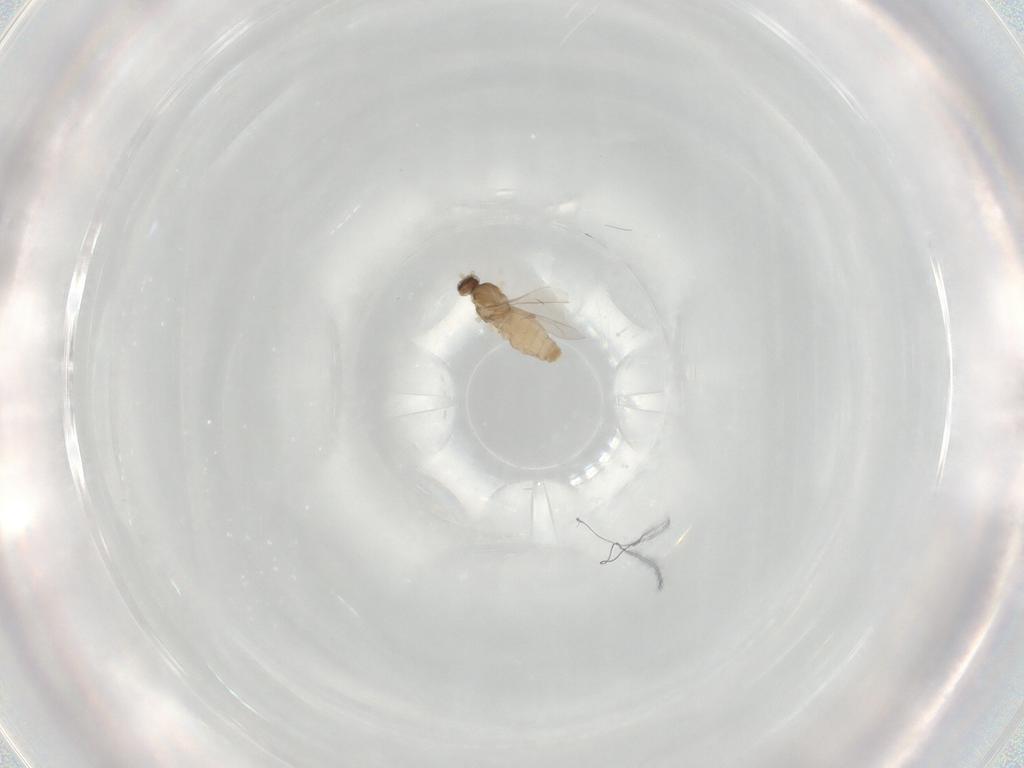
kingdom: Animalia
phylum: Arthropoda
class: Insecta
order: Diptera
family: Cecidomyiidae
